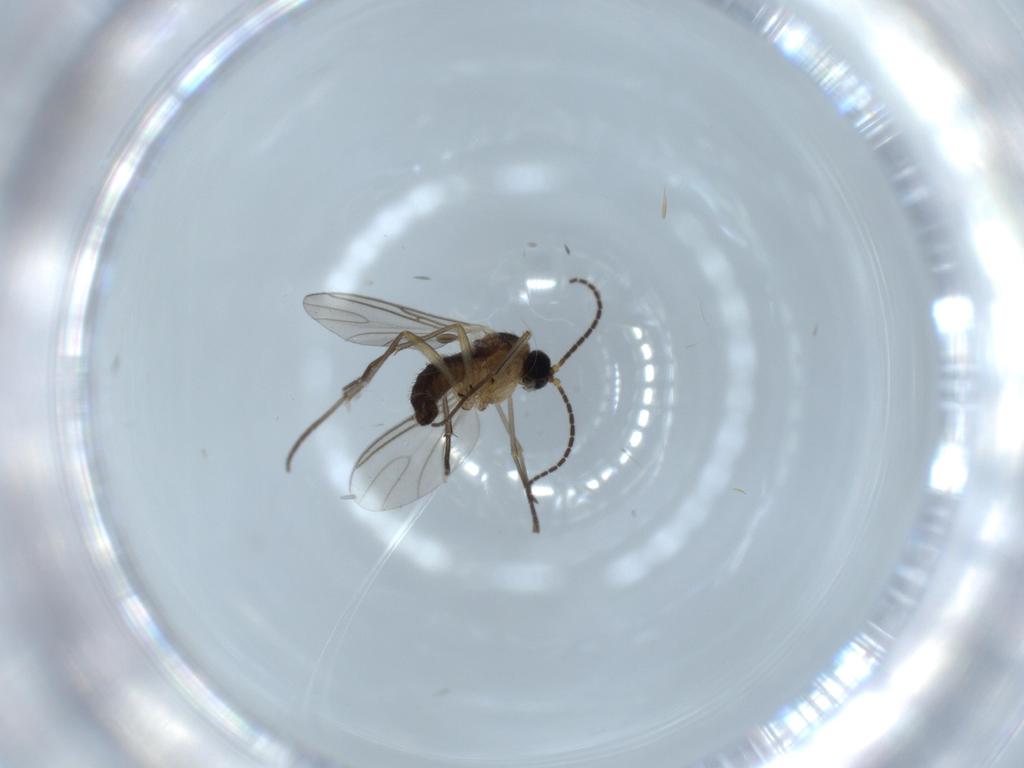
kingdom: Animalia
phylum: Arthropoda
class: Insecta
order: Diptera
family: Sciaridae
